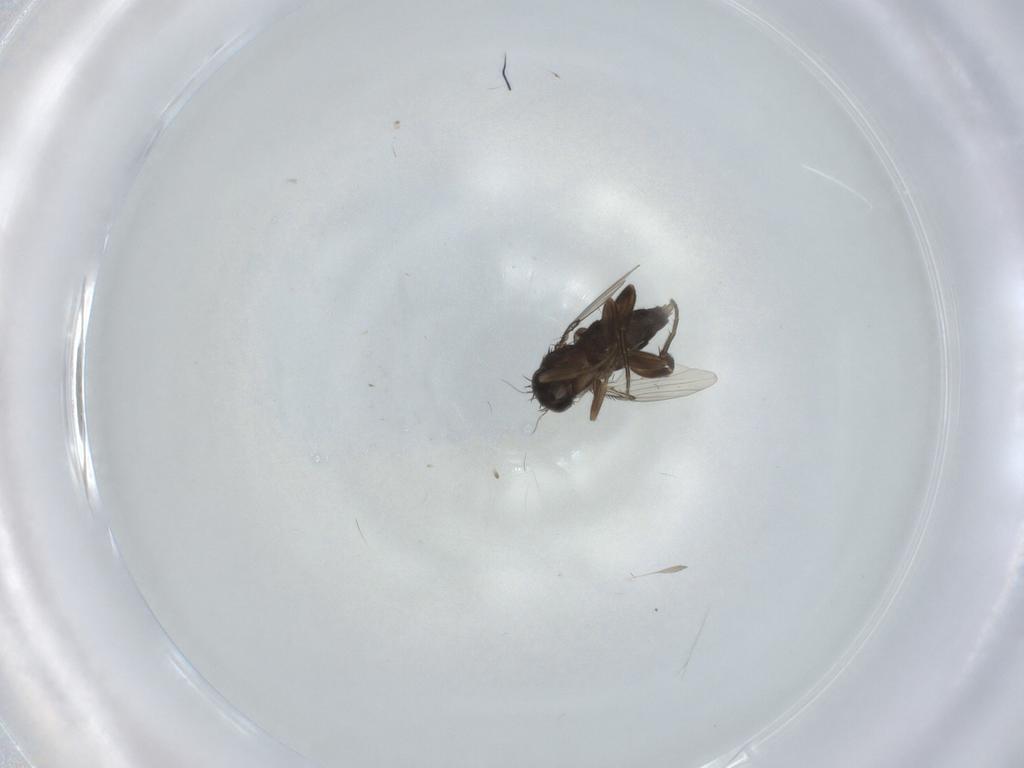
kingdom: Animalia
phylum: Arthropoda
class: Insecta
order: Diptera
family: Phoridae
